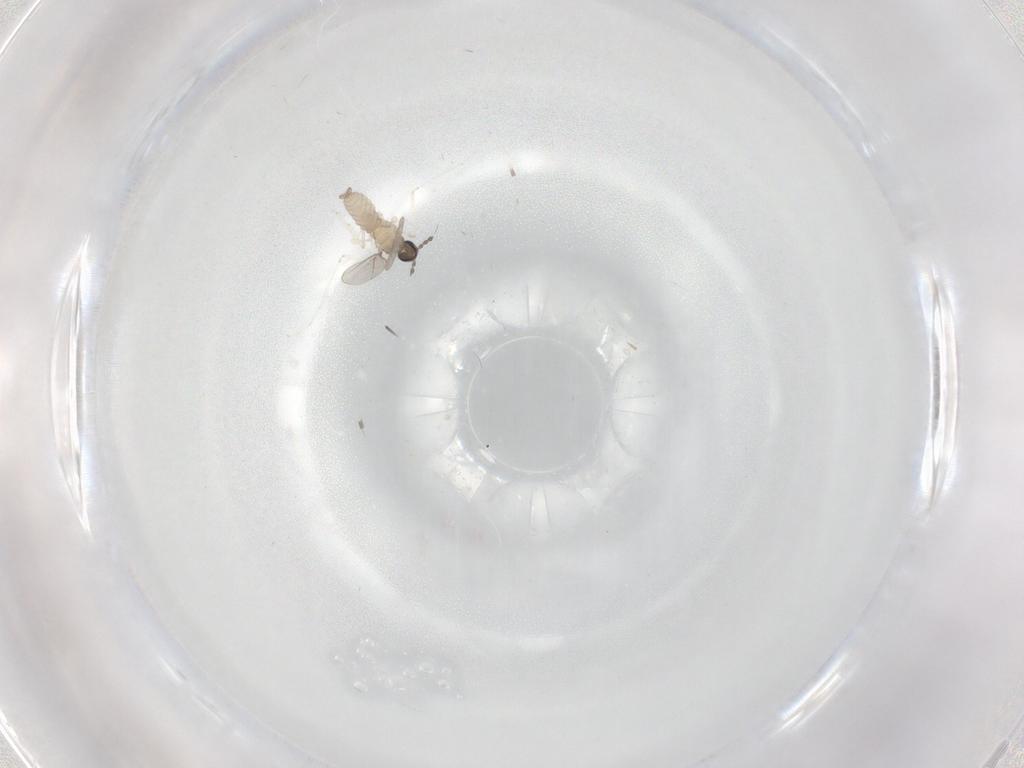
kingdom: Animalia
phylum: Arthropoda
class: Insecta
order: Diptera
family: Cecidomyiidae
